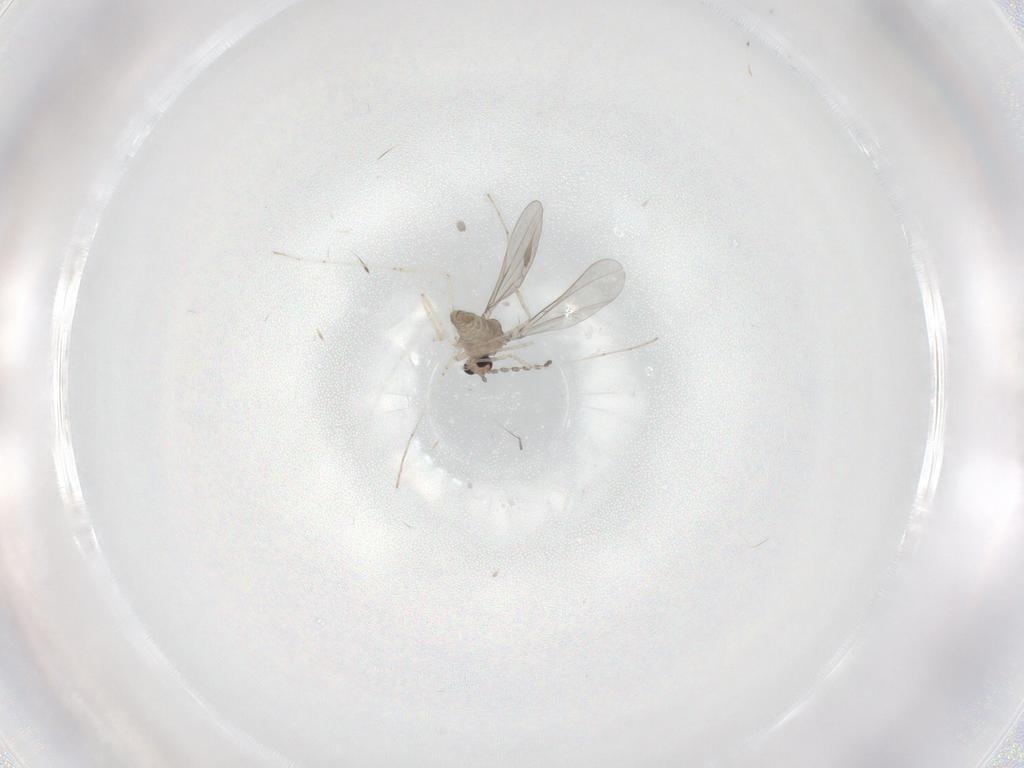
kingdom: Animalia
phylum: Arthropoda
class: Insecta
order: Diptera
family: Cecidomyiidae
